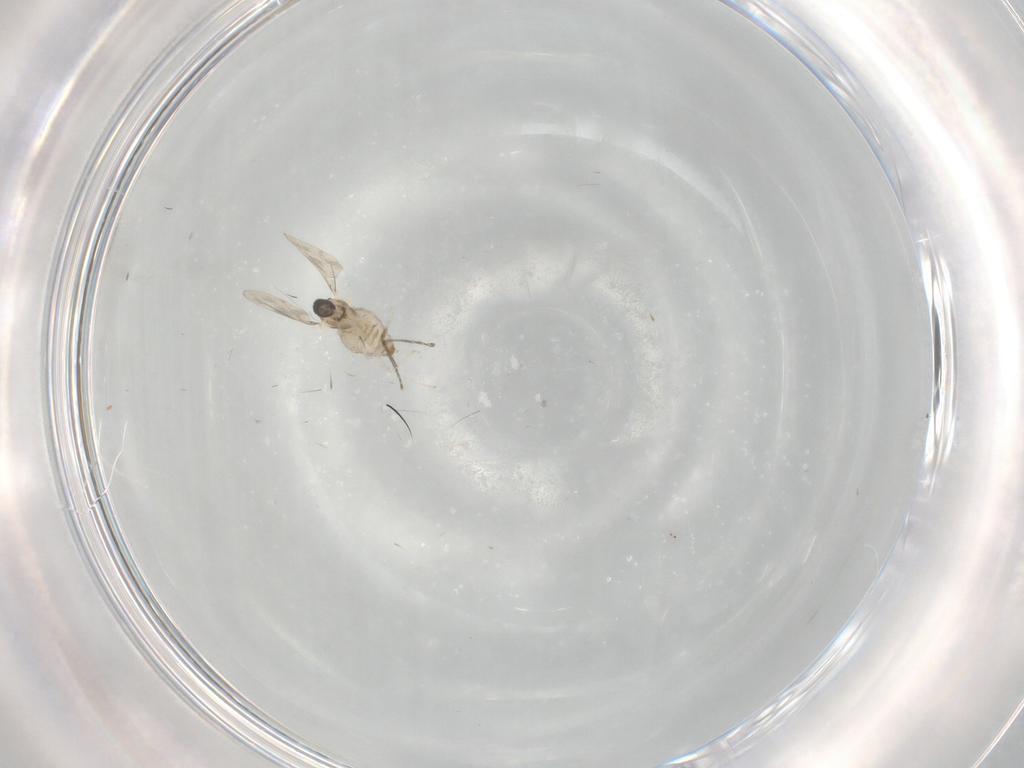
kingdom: Animalia
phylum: Arthropoda
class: Insecta
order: Diptera
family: Cecidomyiidae
